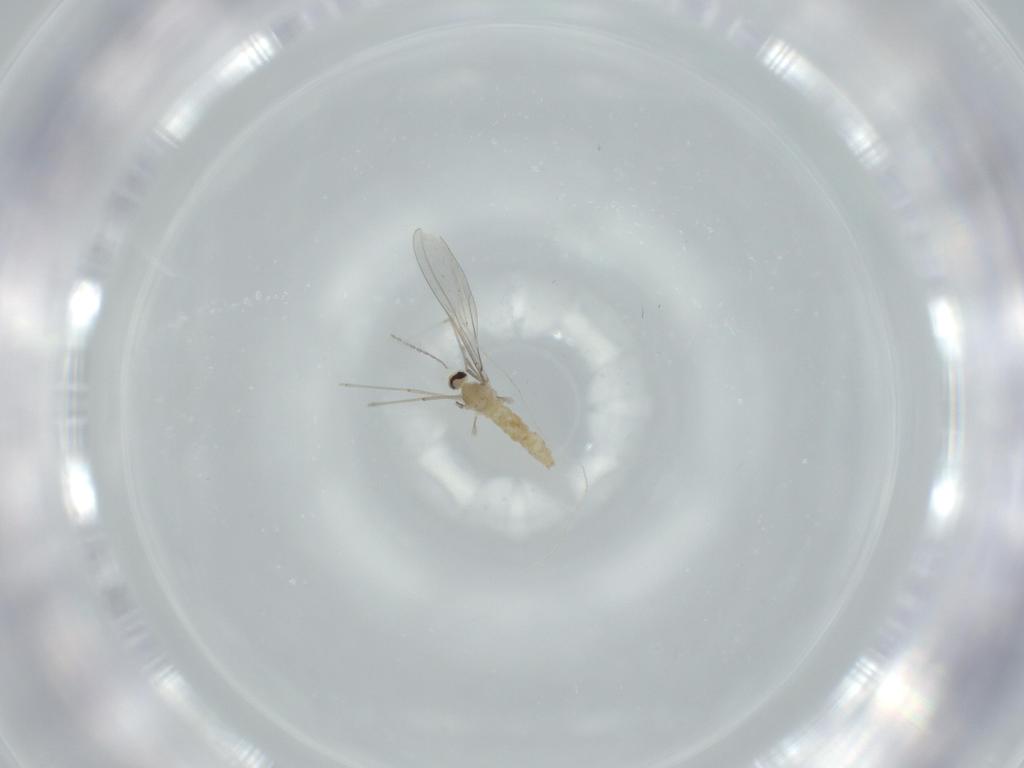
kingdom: Animalia
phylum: Arthropoda
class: Insecta
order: Diptera
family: Cecidomyiidae
